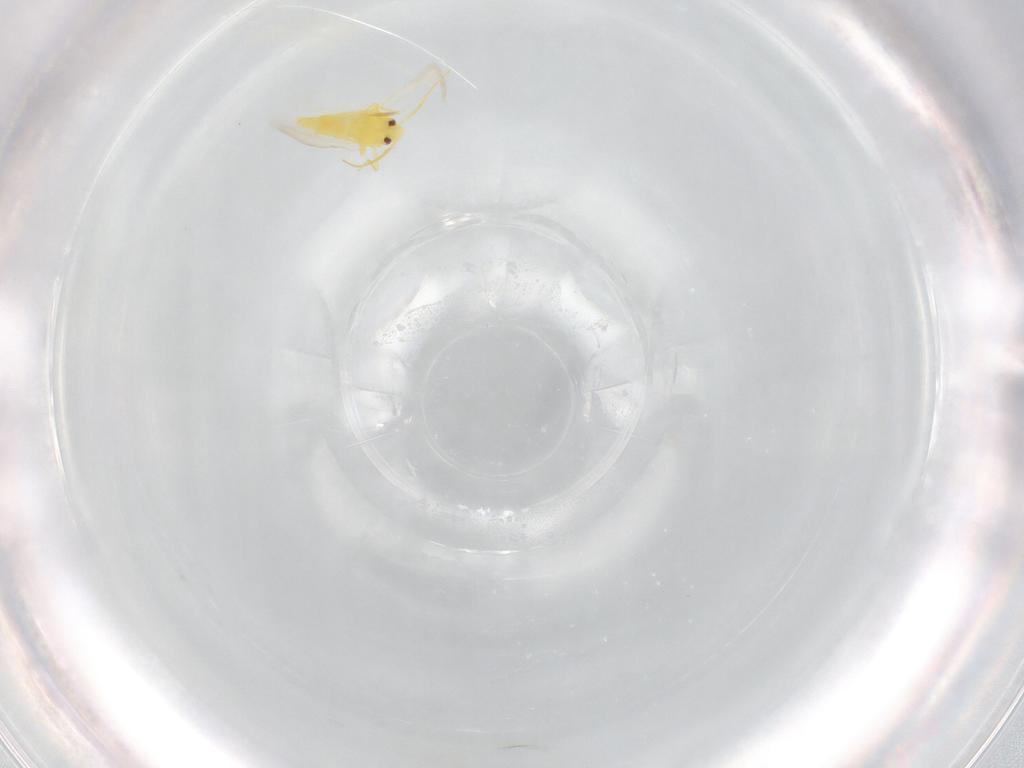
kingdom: Animalia
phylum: Arthropoda
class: Insecta
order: Hemiptera
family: Aleyrodidae
